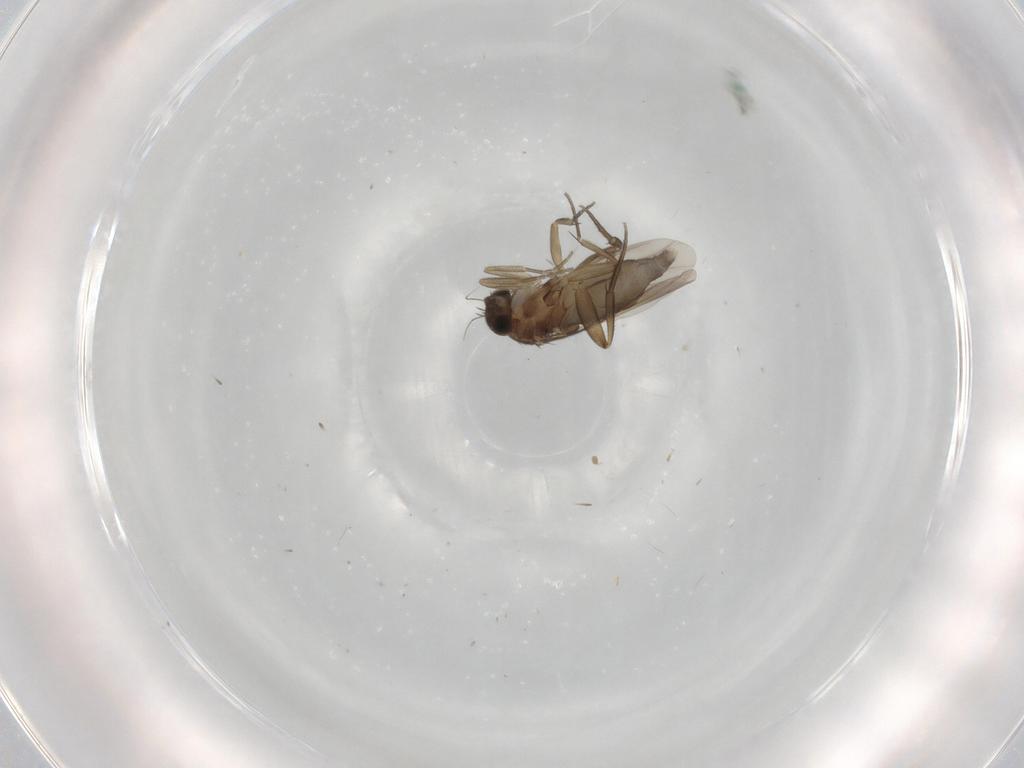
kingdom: Animalia
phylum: Arthropoda
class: Insecta
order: Diptera
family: Phoridae
